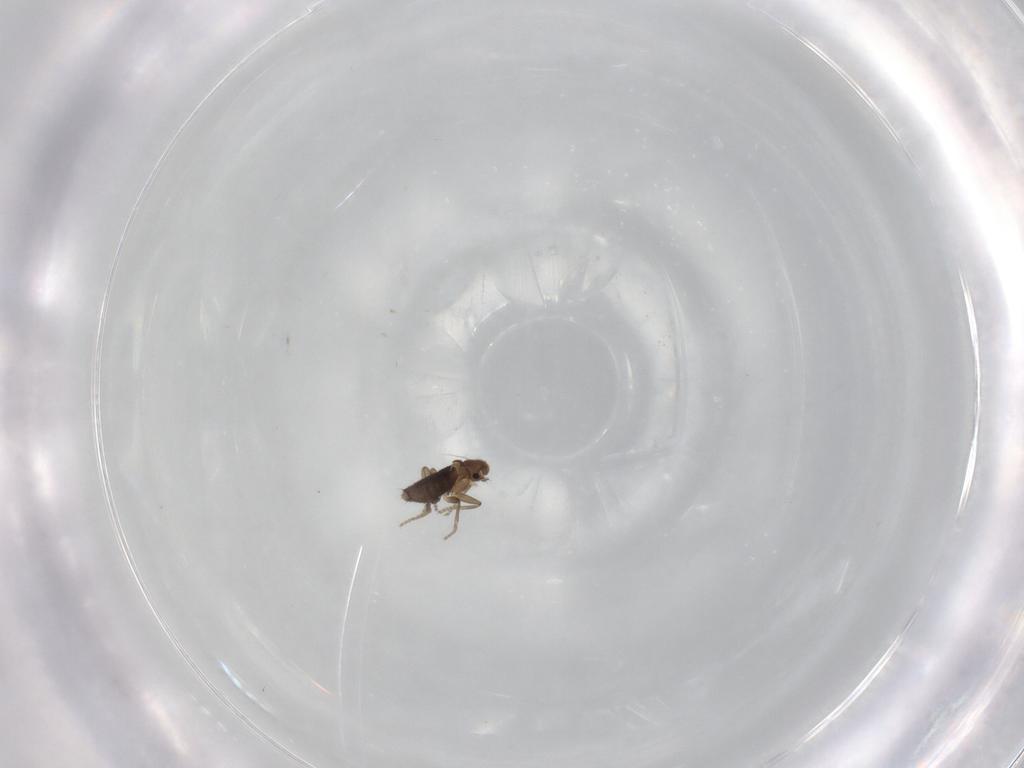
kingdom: Animalia
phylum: Arthropoda
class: Insecta
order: Diptera
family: Phoridae
